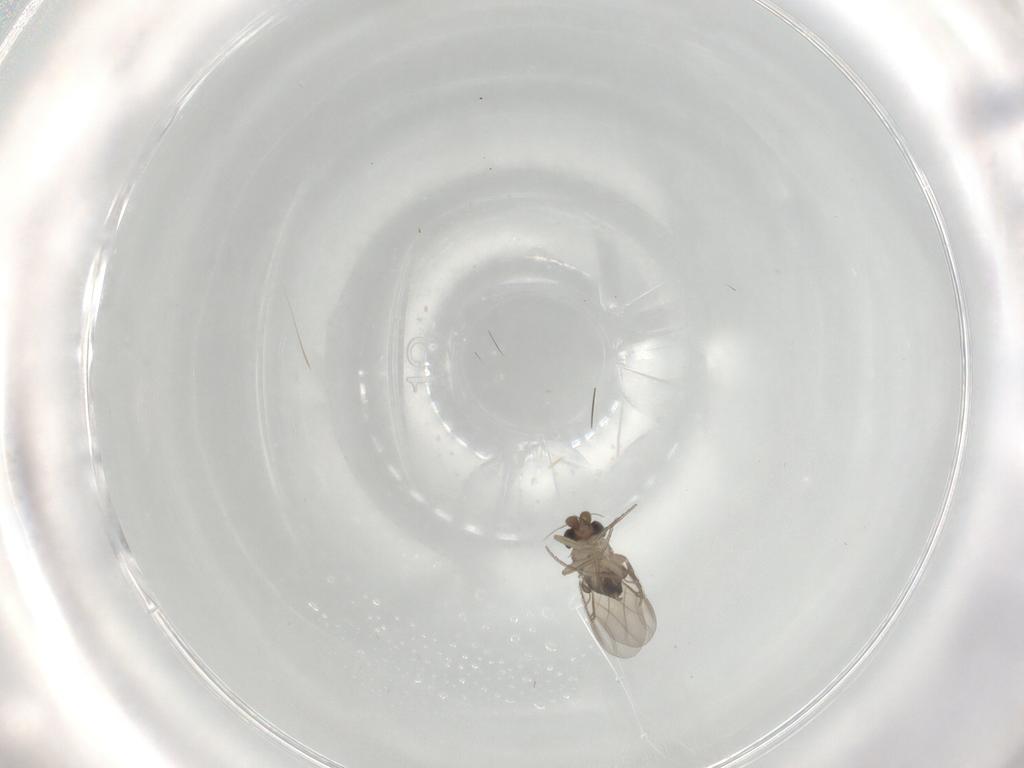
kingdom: Animalia
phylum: Arthropoda
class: Insecta
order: Diptera
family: Phoridae
